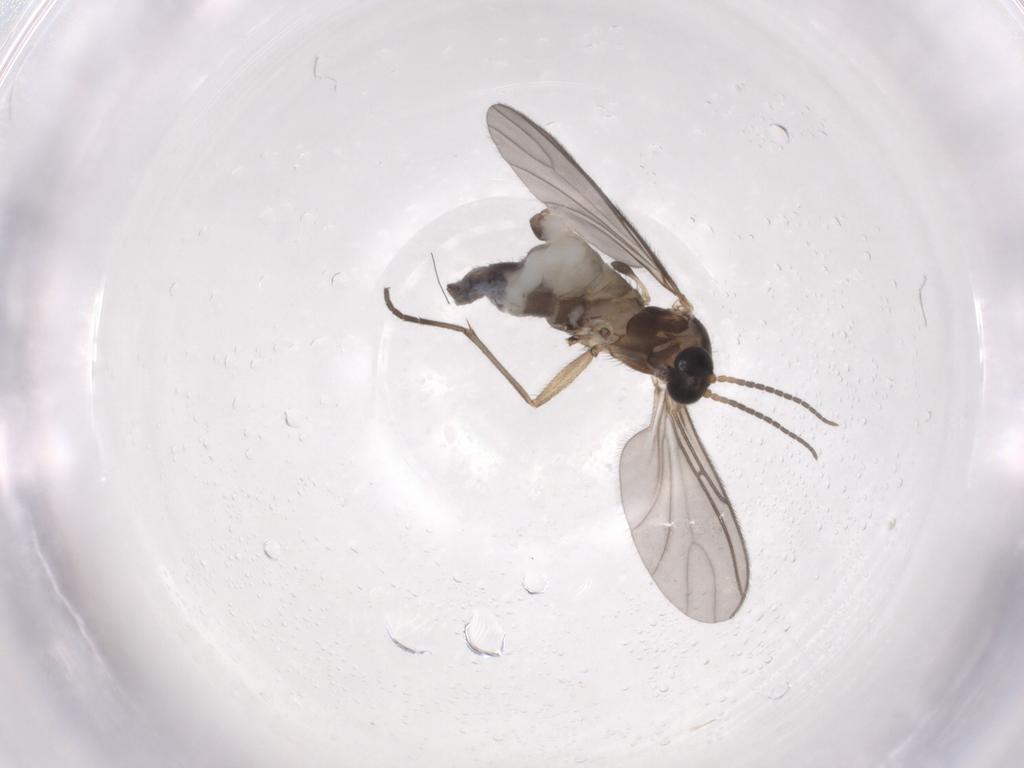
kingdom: Animalia
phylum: Arthropoda
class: Insecta
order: Diptera
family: Sciaridae
